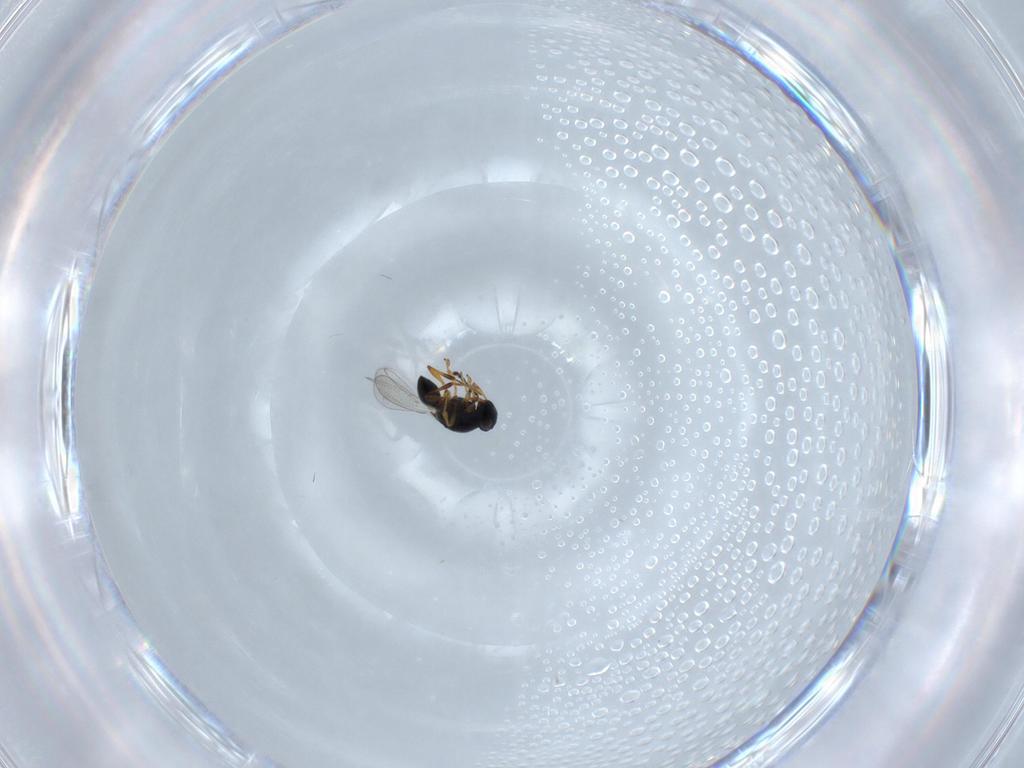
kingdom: Animalia
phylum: Arthropoda
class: Insecta
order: Hymenoptera
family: Platygastridae
